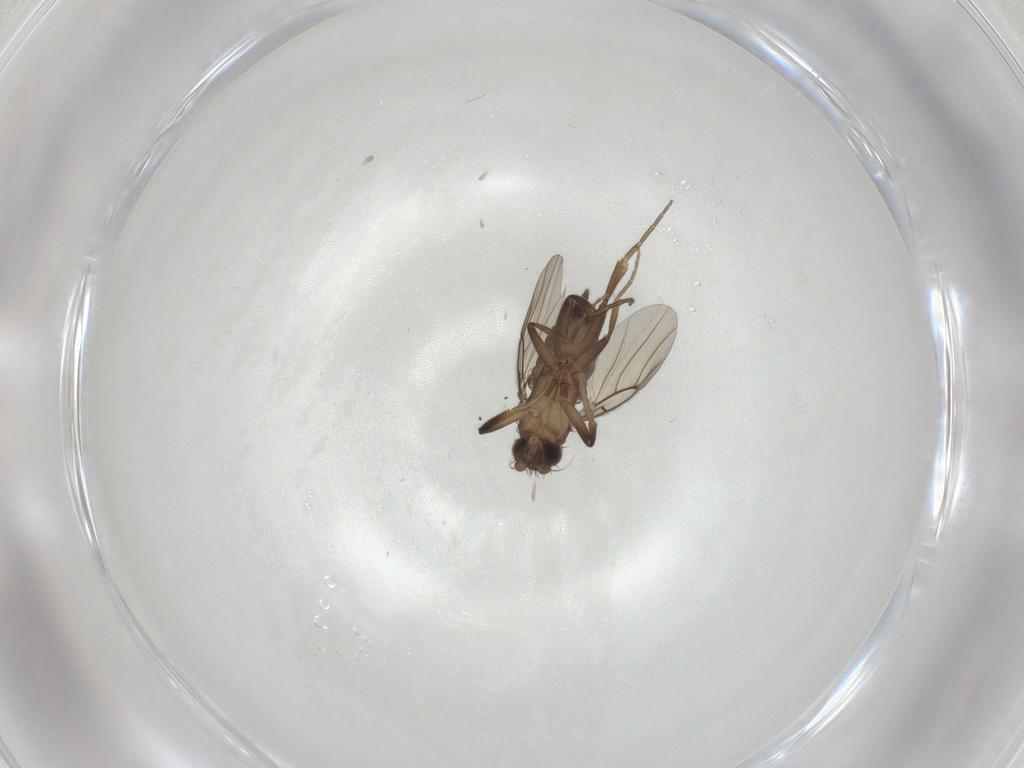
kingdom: Animalia
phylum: Arthropoda
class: Insecta
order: Diptera
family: Phoridae
